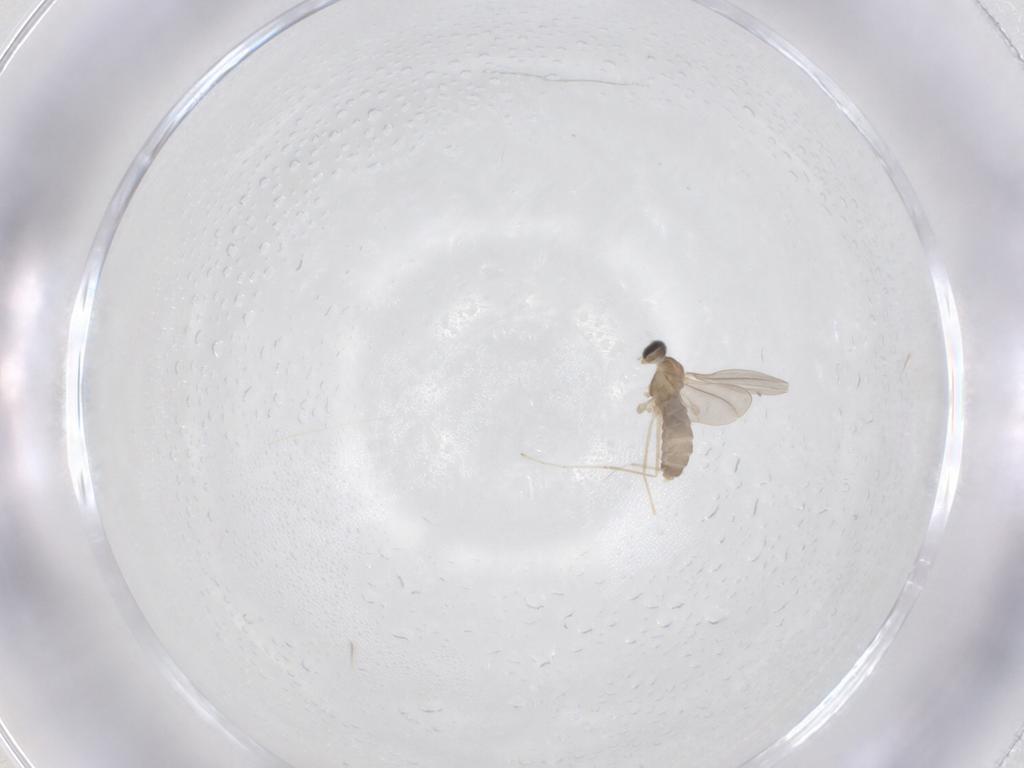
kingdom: Animalia
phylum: Arthropoda
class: Insecta
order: Diptera
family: Cecidomyiidae
